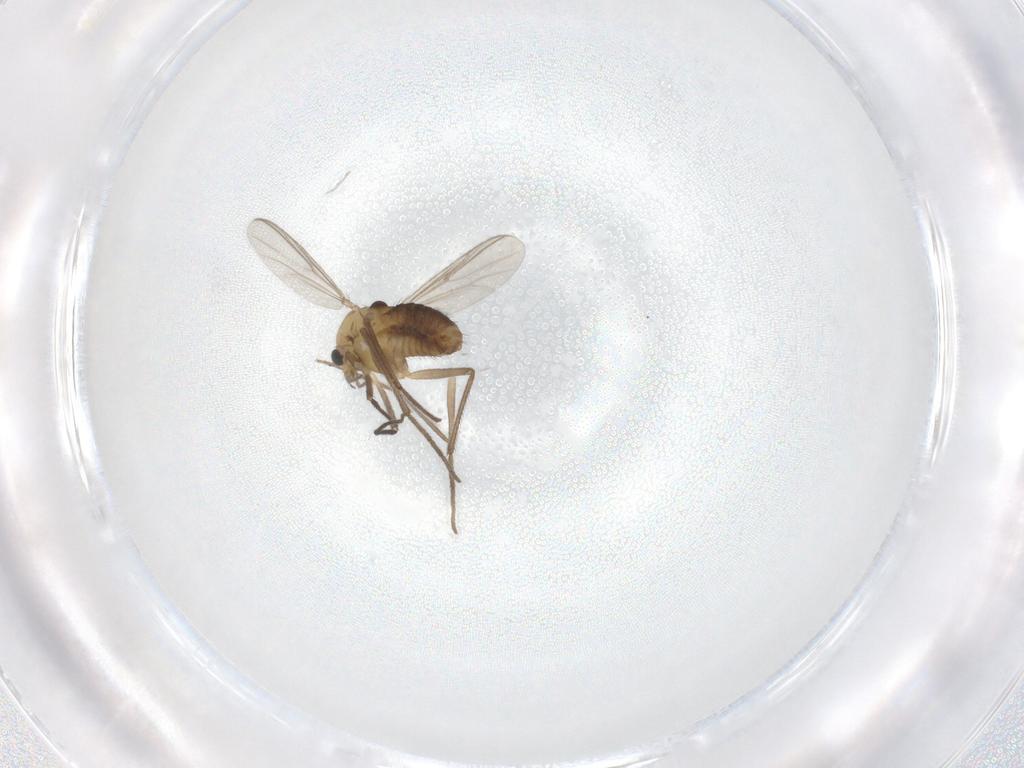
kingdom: Animalia
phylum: Arthropoda
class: Insecta
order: Diptera
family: Chironomidae
